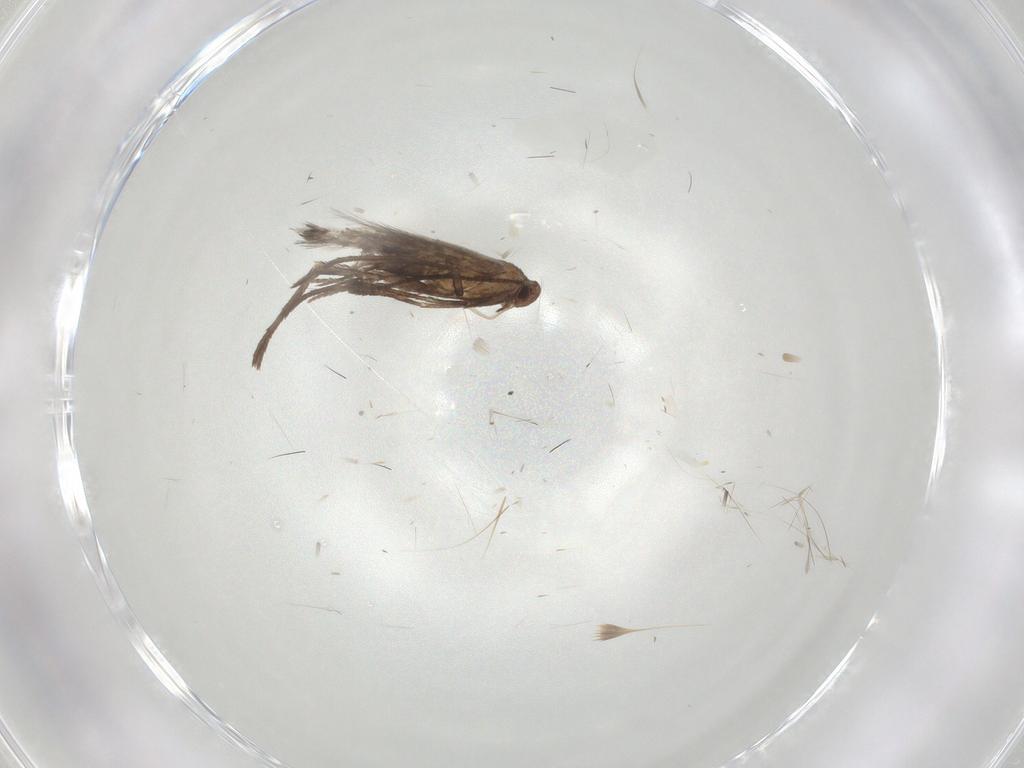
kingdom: Animalia
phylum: Arthropoda
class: Insecta
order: Lepidoptera
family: Gracillariidae
